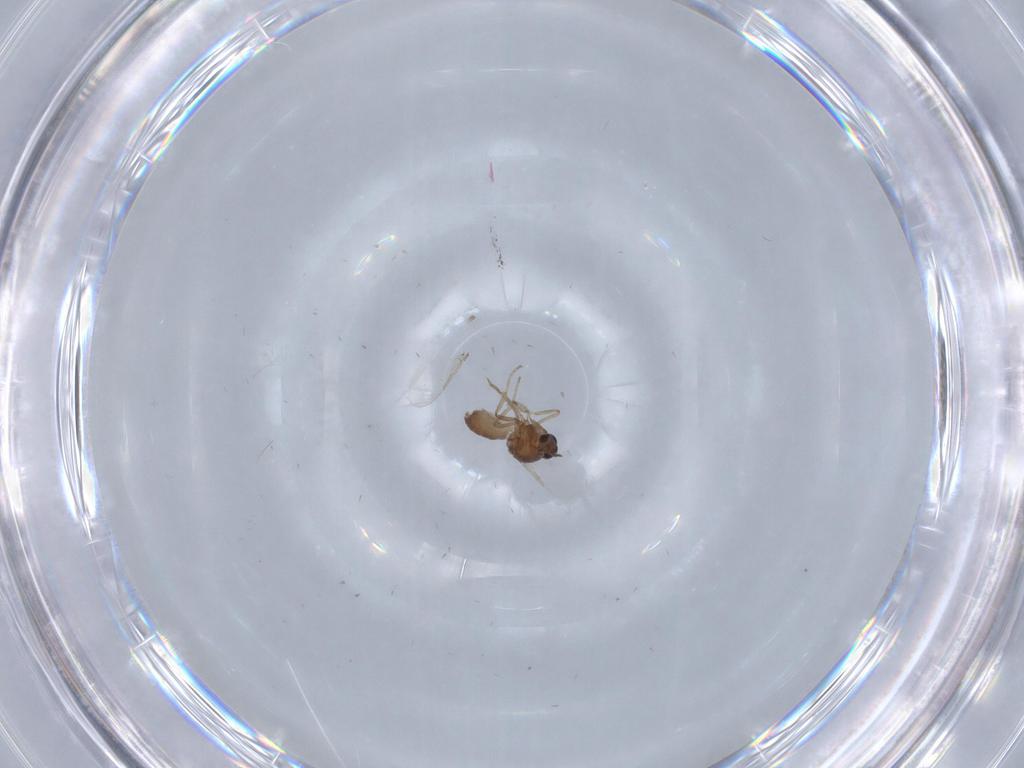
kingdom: Animalia
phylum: Arthropoda
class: Insecta
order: Diptera
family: Ceratopogonidae
